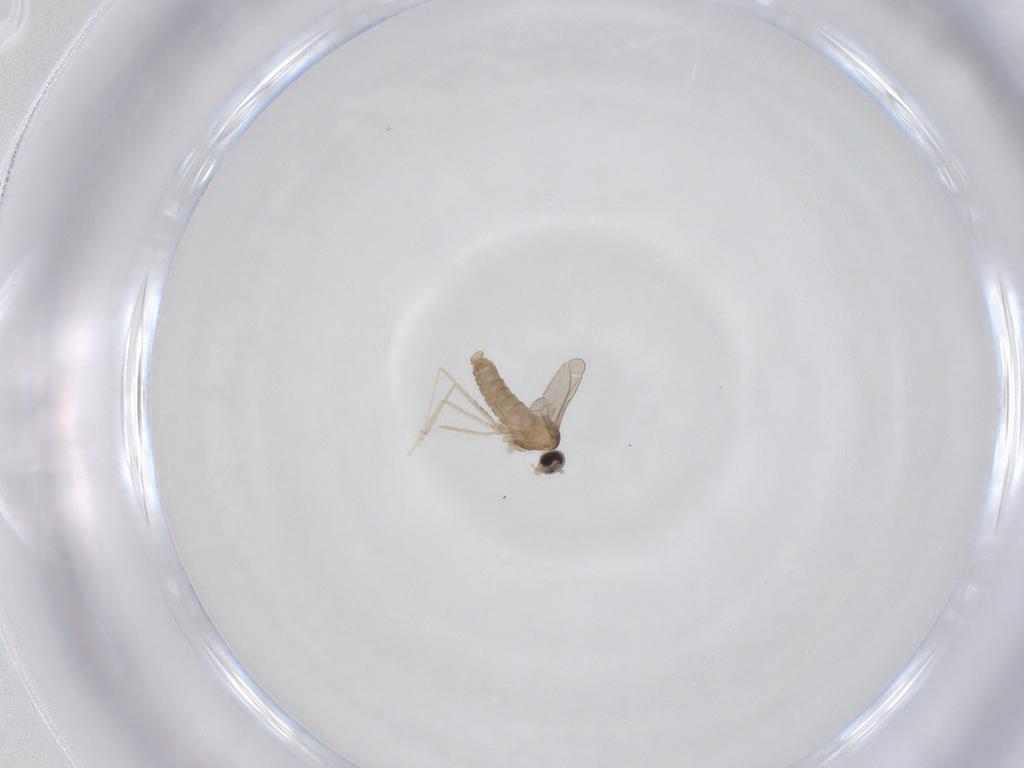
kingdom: Animalia
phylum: Arthropoda
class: Insecta
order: Diptera
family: Cecidomyiidae
